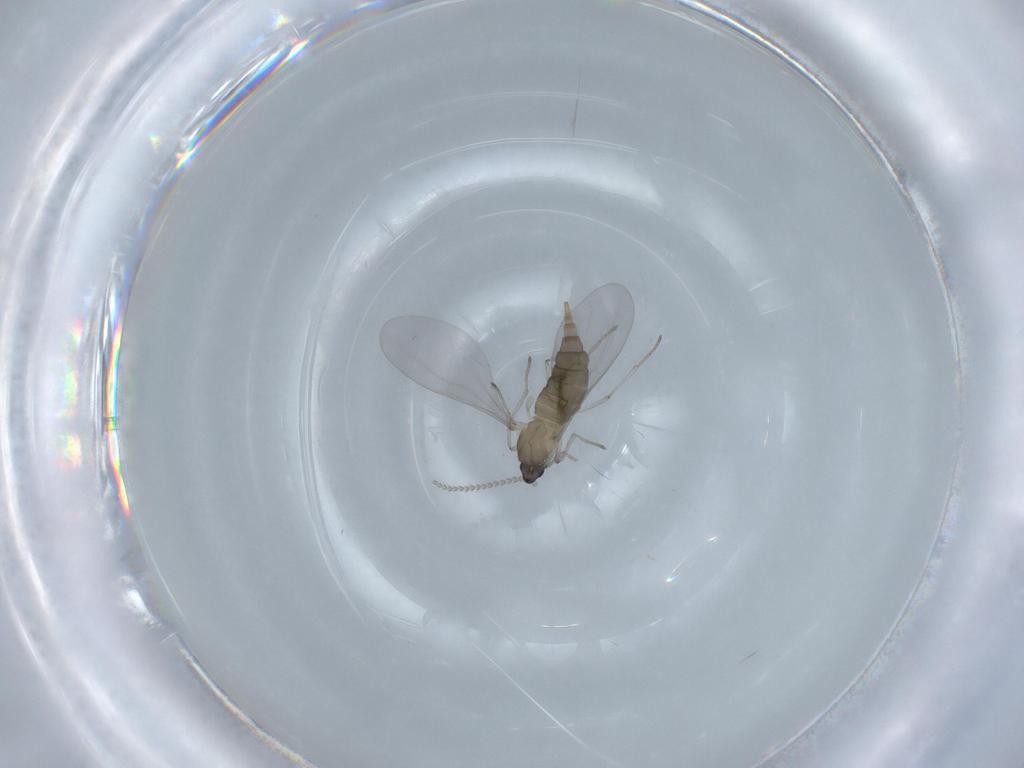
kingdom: Animalia
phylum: Arthropoda
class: Insecta
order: Diptera
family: Cecidomyiidae
